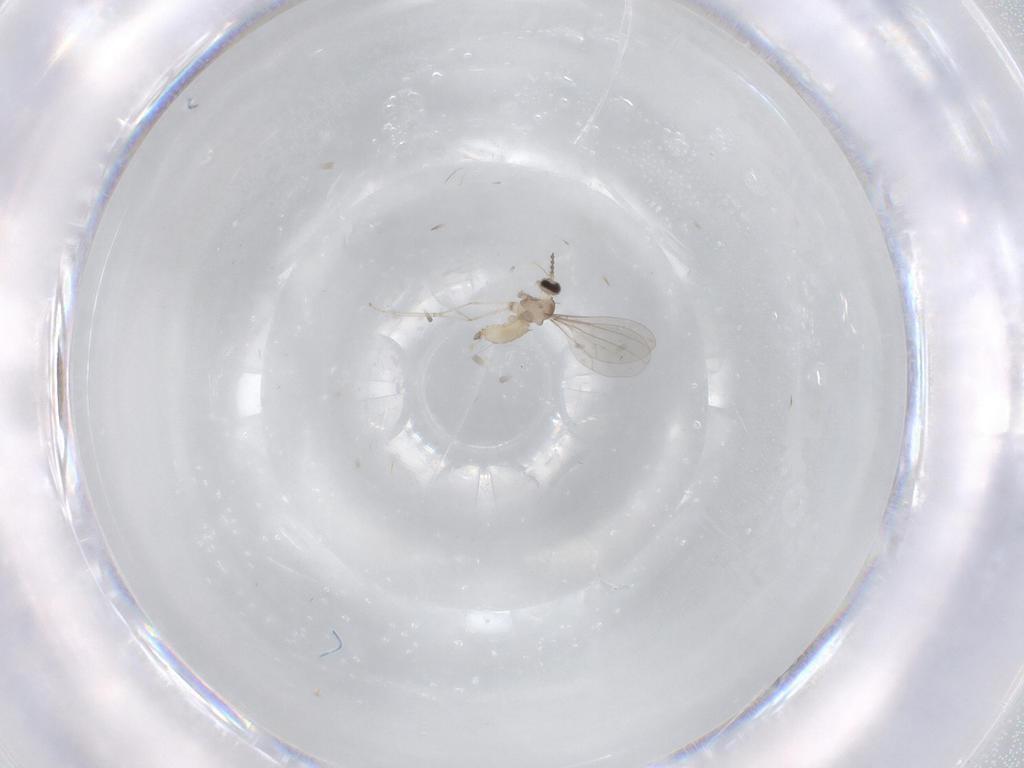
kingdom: Animalia
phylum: Arthropoda
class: Insecta
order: Diptera
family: Cecidomyiidae
